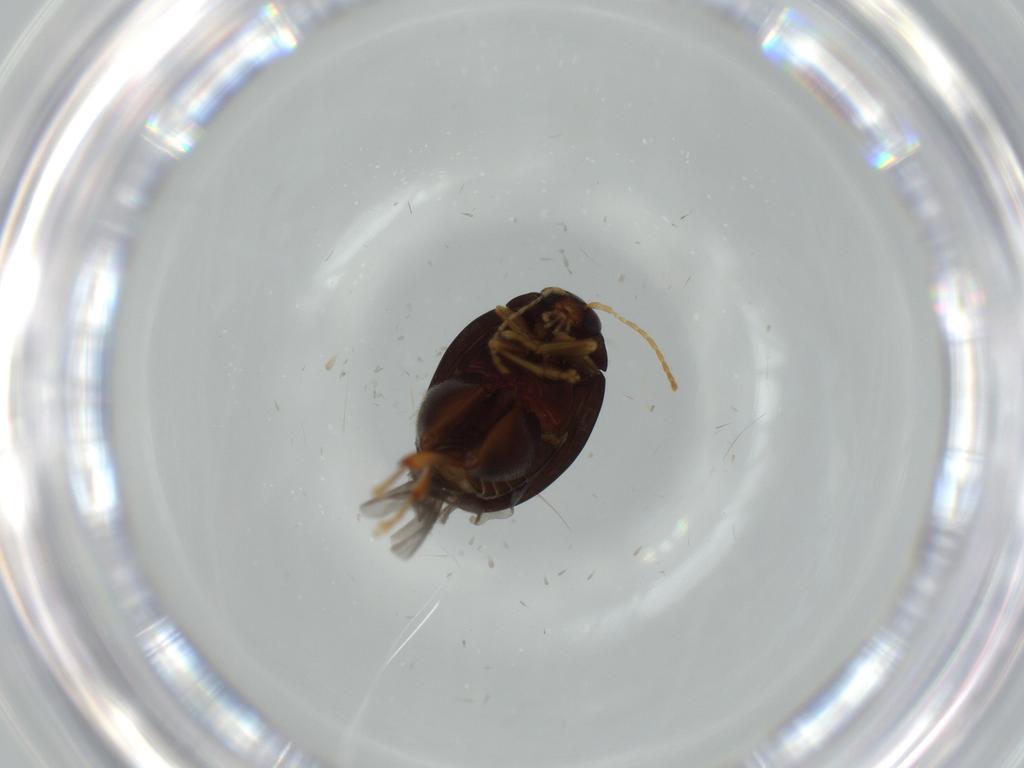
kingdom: Animalia
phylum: Arthropoda
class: Insecta
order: Coleoptera
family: Chrysomelidae
